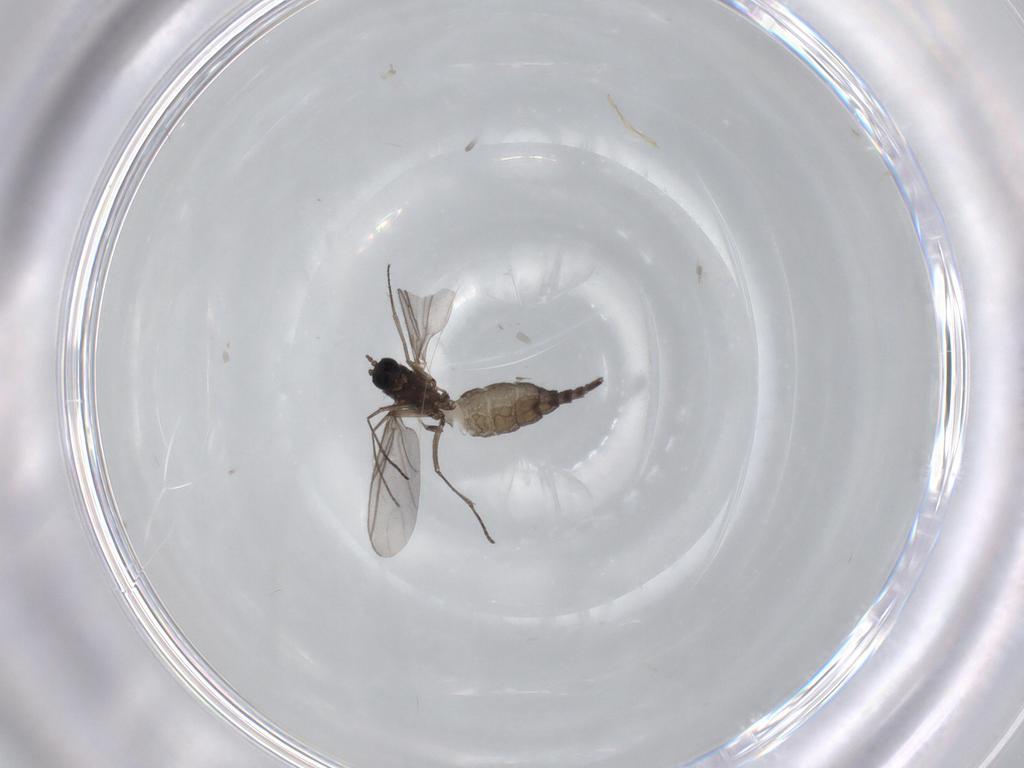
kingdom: Animalia
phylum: Arthropoda
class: Insecta
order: Diptera
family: Sciaridae
